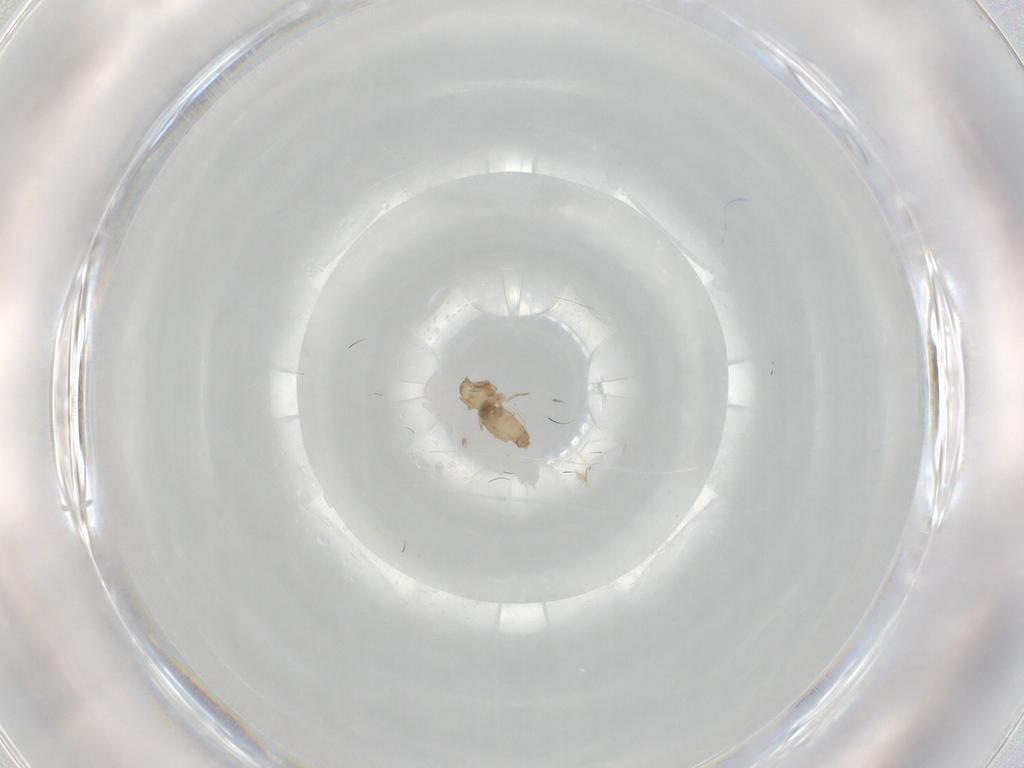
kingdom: Animalia
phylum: Arthropoda
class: Insecta
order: Diptera
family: Cecidomyiidae
